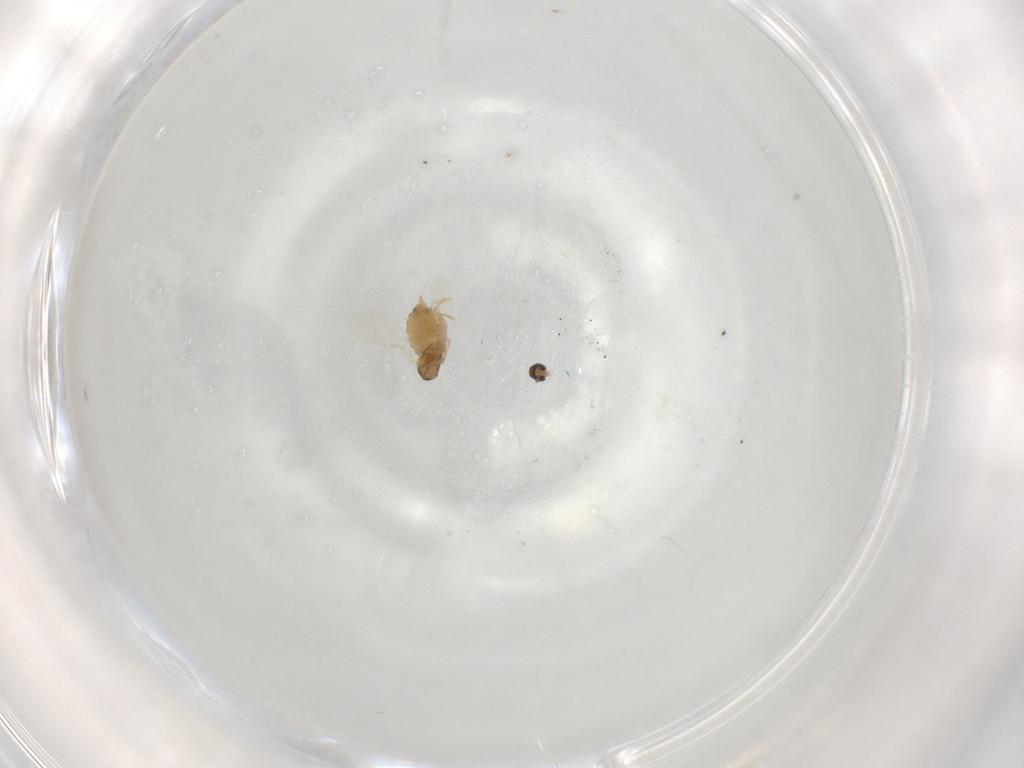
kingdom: Animalia
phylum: Arthropoda
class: Insecta
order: Diptera
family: Cecidomyiidae
